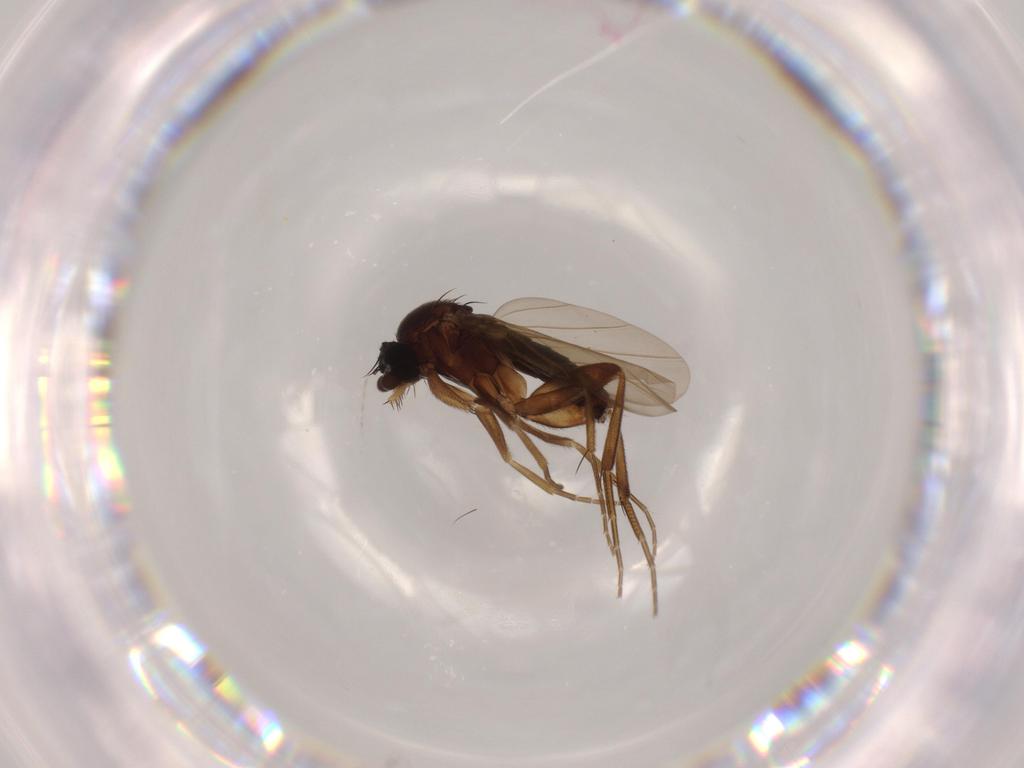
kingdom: Animalia
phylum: Arthropoda
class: Insecta
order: Diptera
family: Phoridae
